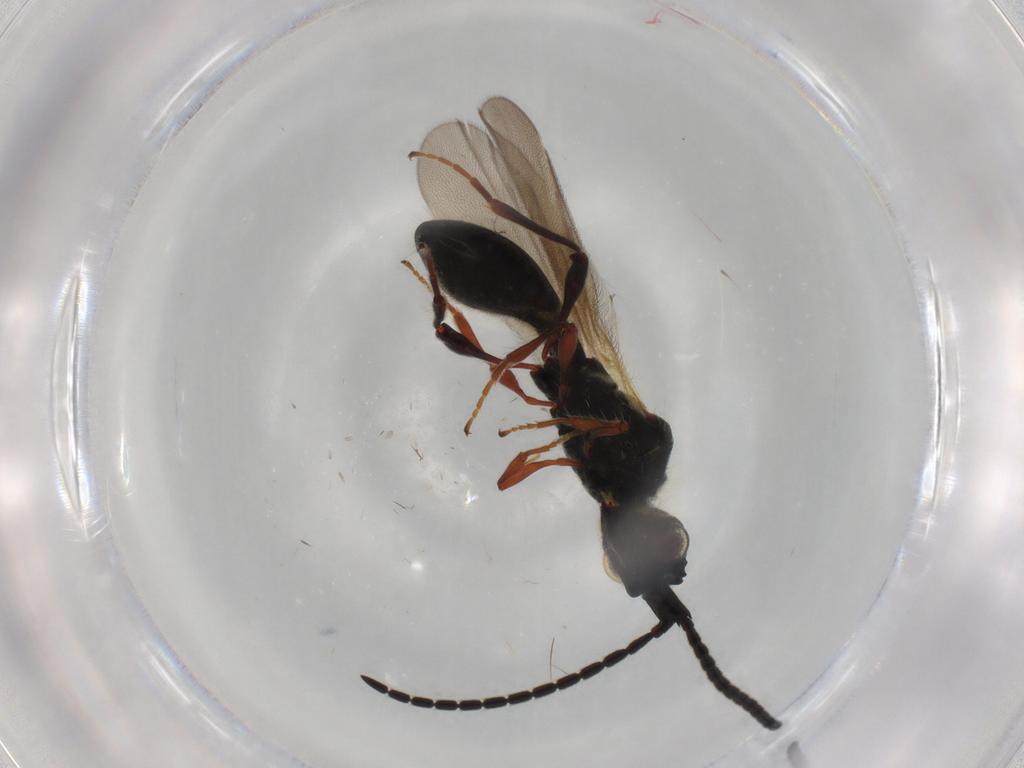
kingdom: Animalia
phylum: Arthropoda
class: Insecta
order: Hymenoptera
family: Diapriidae
